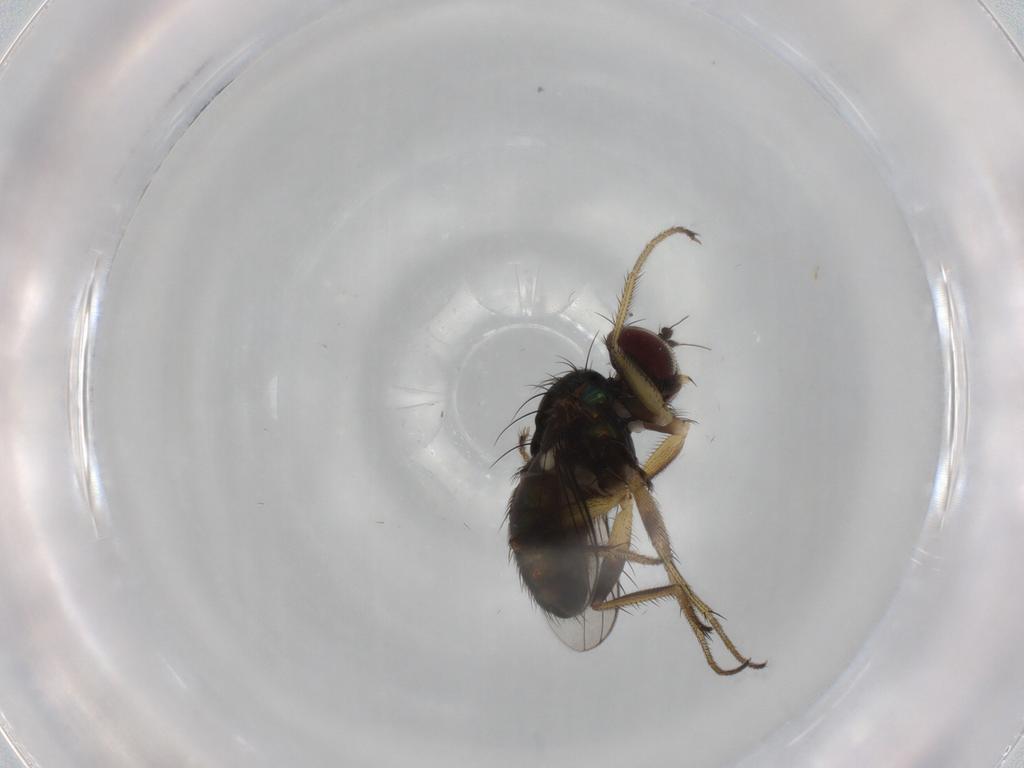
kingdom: Animalia
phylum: Arthropoda
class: Insecta
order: Diptera
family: Dolichopodidae
